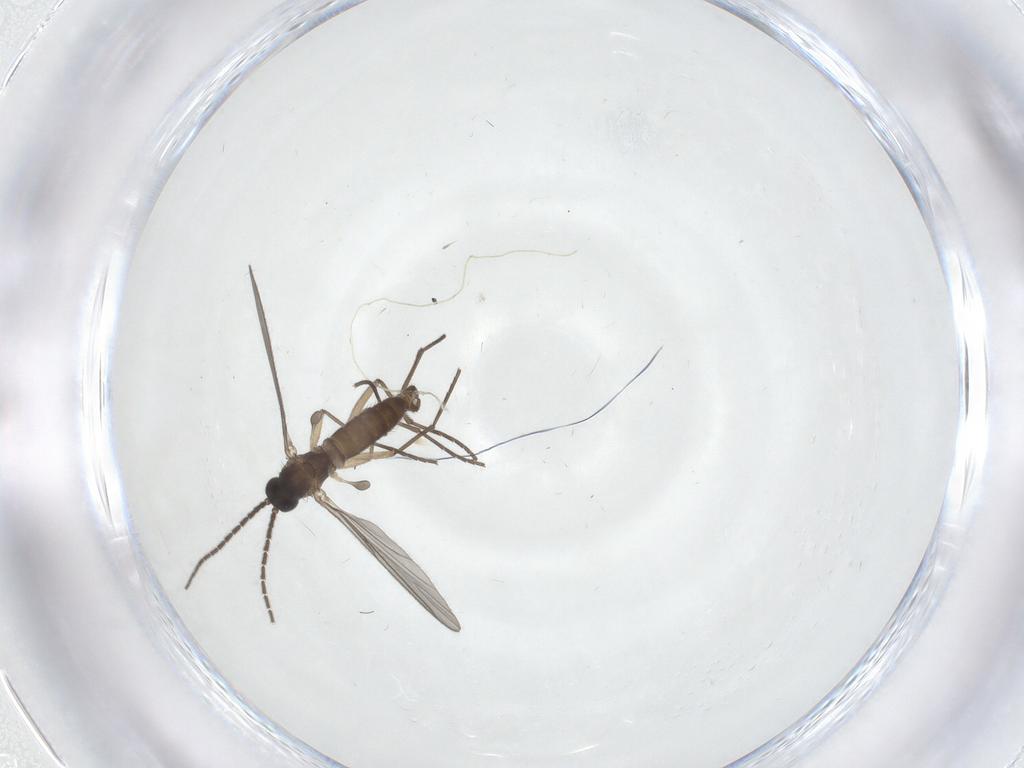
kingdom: Animalia
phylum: Arthropoda
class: Insecta
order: Diptera
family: Sciaridae
